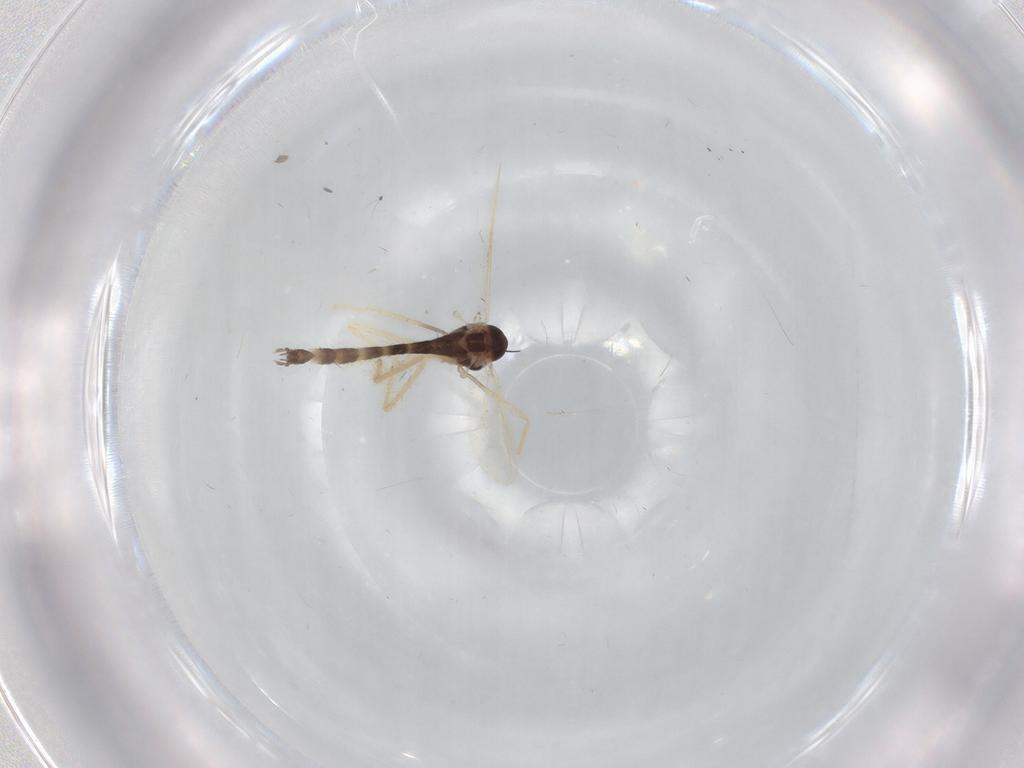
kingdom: Animalia
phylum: Arthropoda
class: Insecta
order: Diptera
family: Chironomidae
